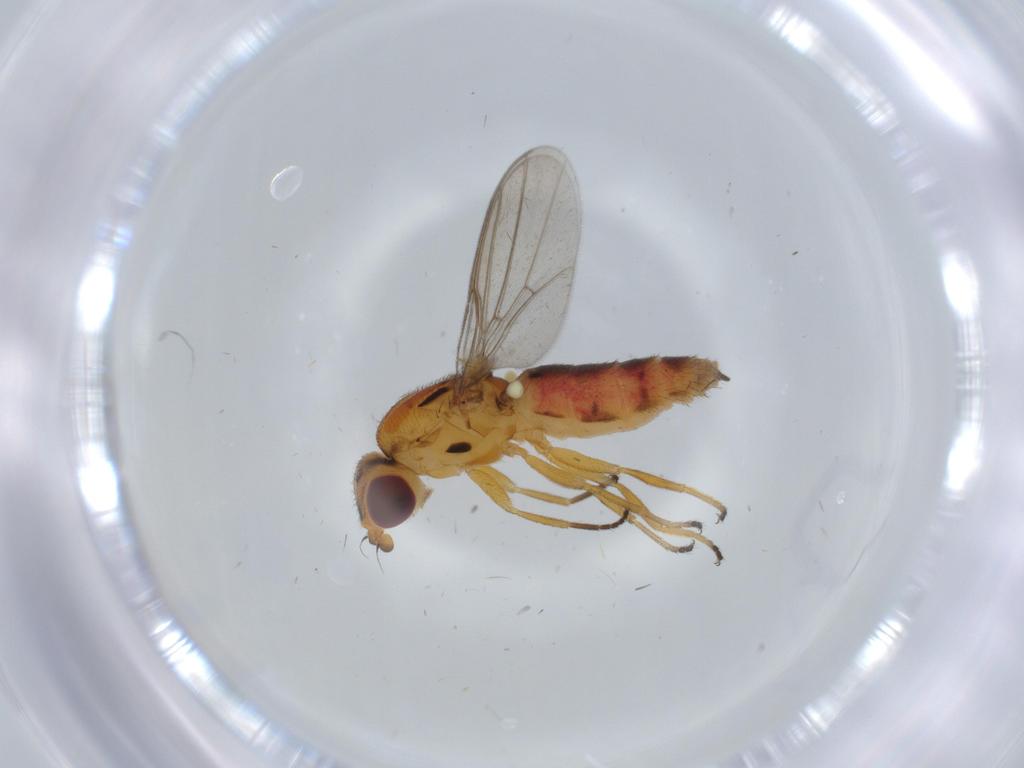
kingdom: Animalia
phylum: Arthropoda
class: Insecta
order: Diptera
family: Chloropidae
